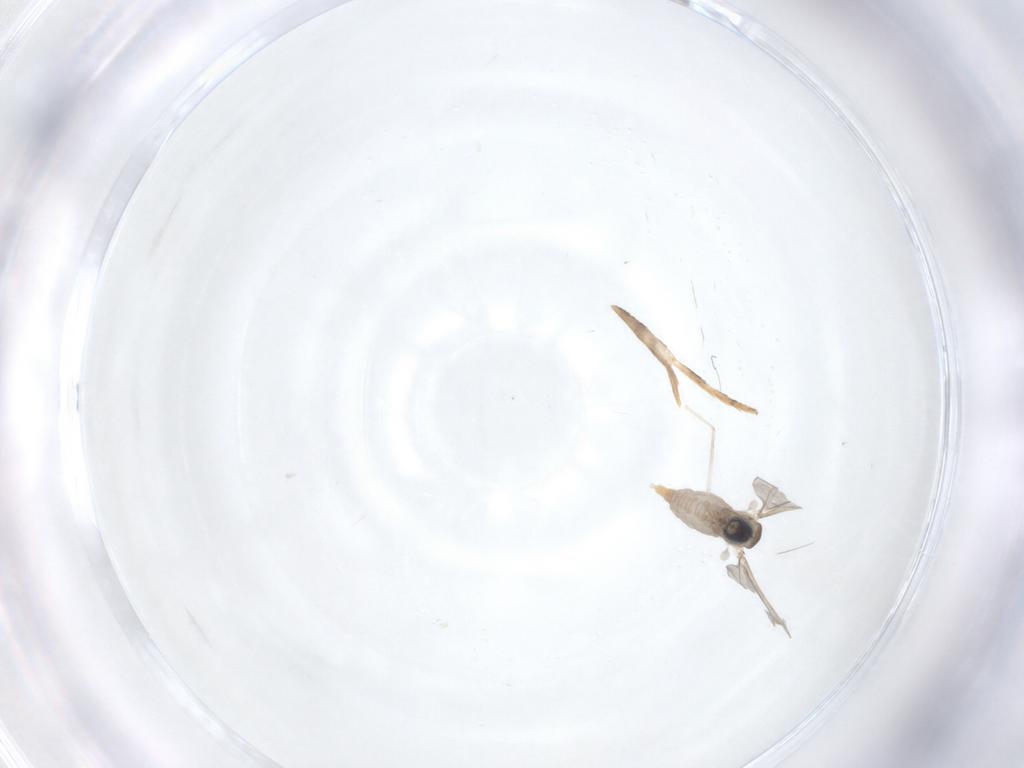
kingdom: Animalia
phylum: Arthropoda
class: Insecta
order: Diptera
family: Cecidomyiidae
